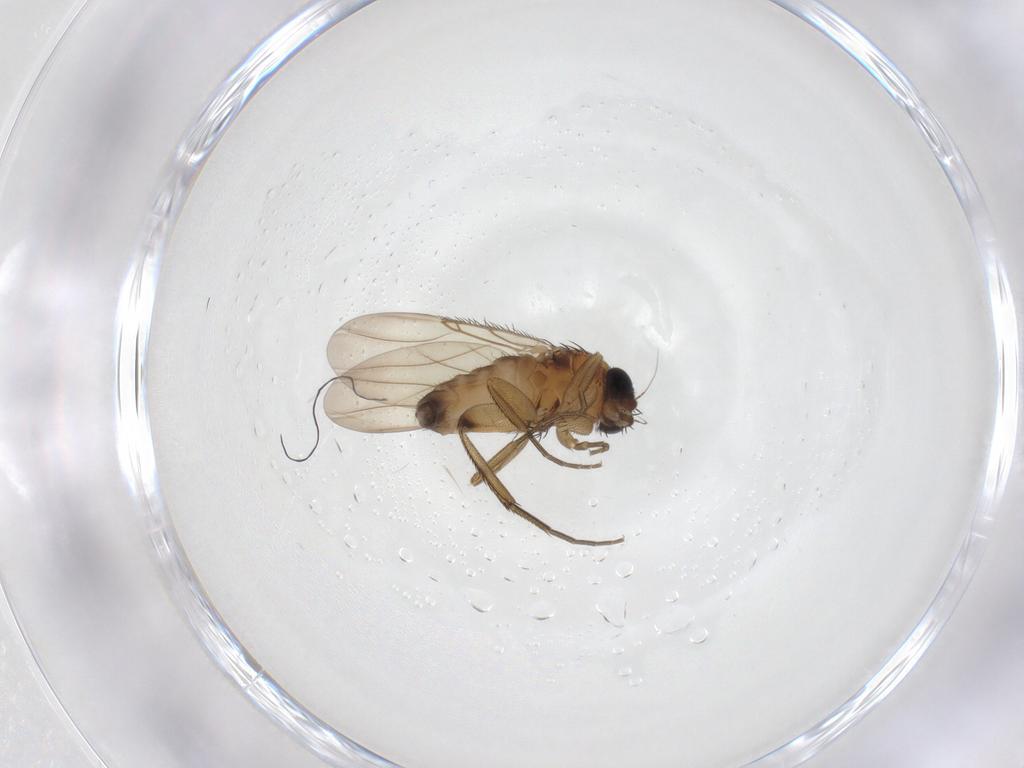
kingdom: Animalia
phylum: Arthropoda
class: Insecta
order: Diptera
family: Phoridae
